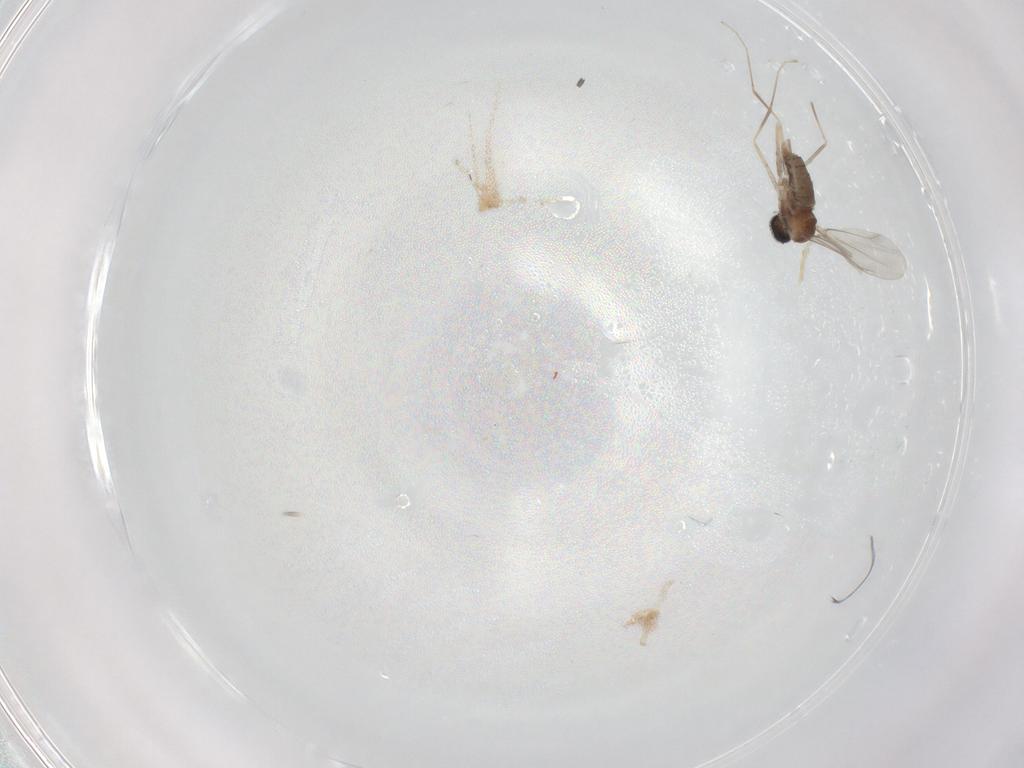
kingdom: Animalia
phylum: Arthropoda
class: Insecta
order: Diptera
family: Cecidomyiidae
